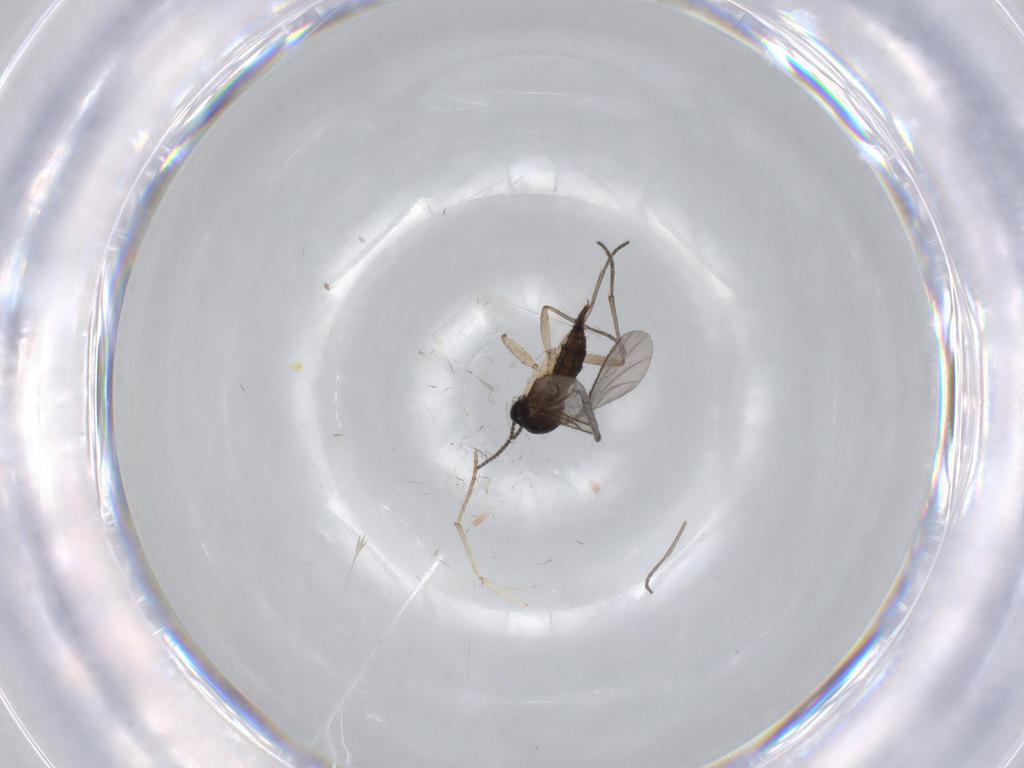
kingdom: Animalia
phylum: Arthropoda
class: Insecta
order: Diptera
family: Sciaridae
